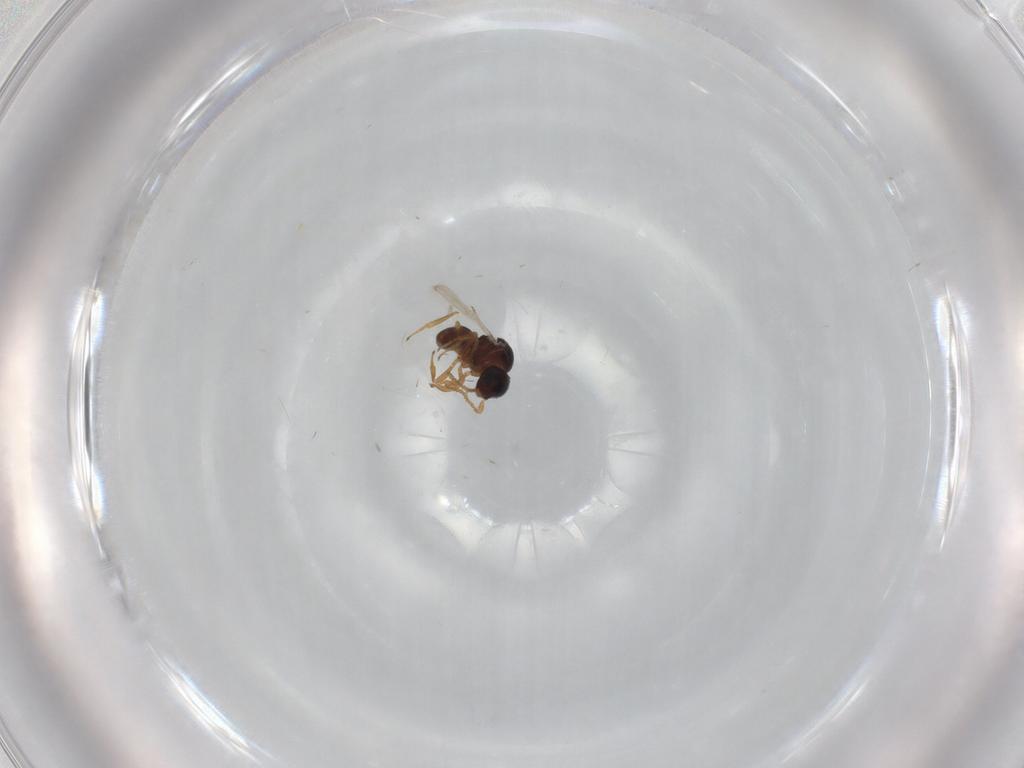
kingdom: Animalia
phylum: Arthropoda
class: Insecta
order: Hymenoptera
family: Scelionidae
